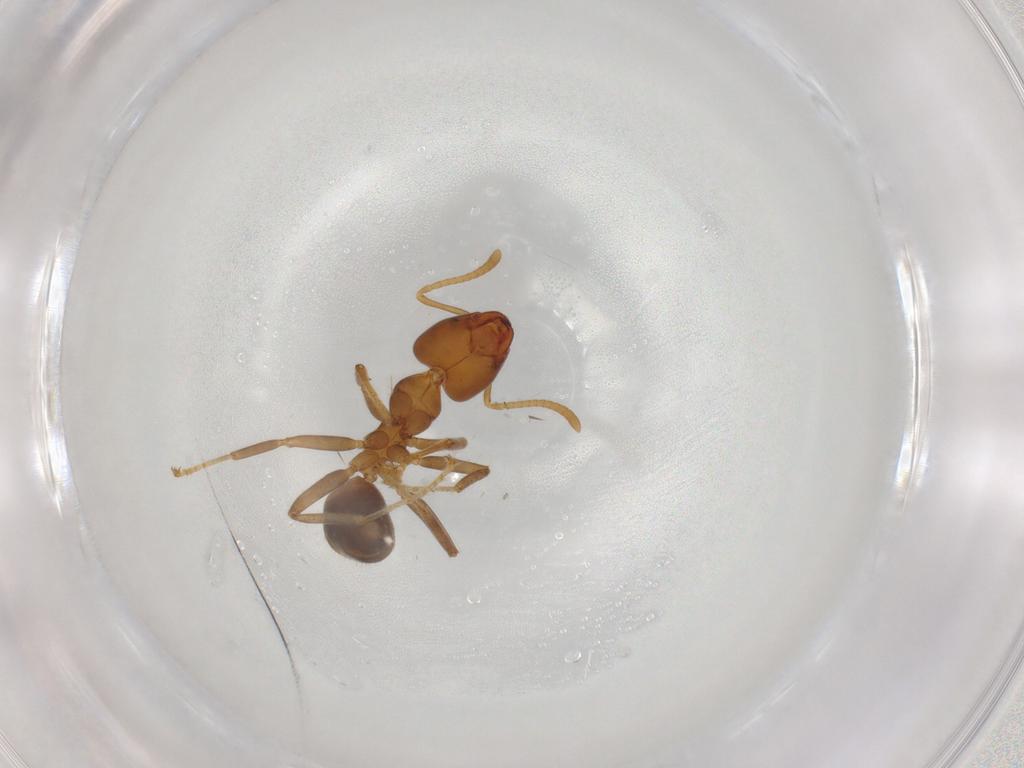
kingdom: Animalia
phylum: Arthropoda
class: Insecta
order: Hymenoptera
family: Formicidae
